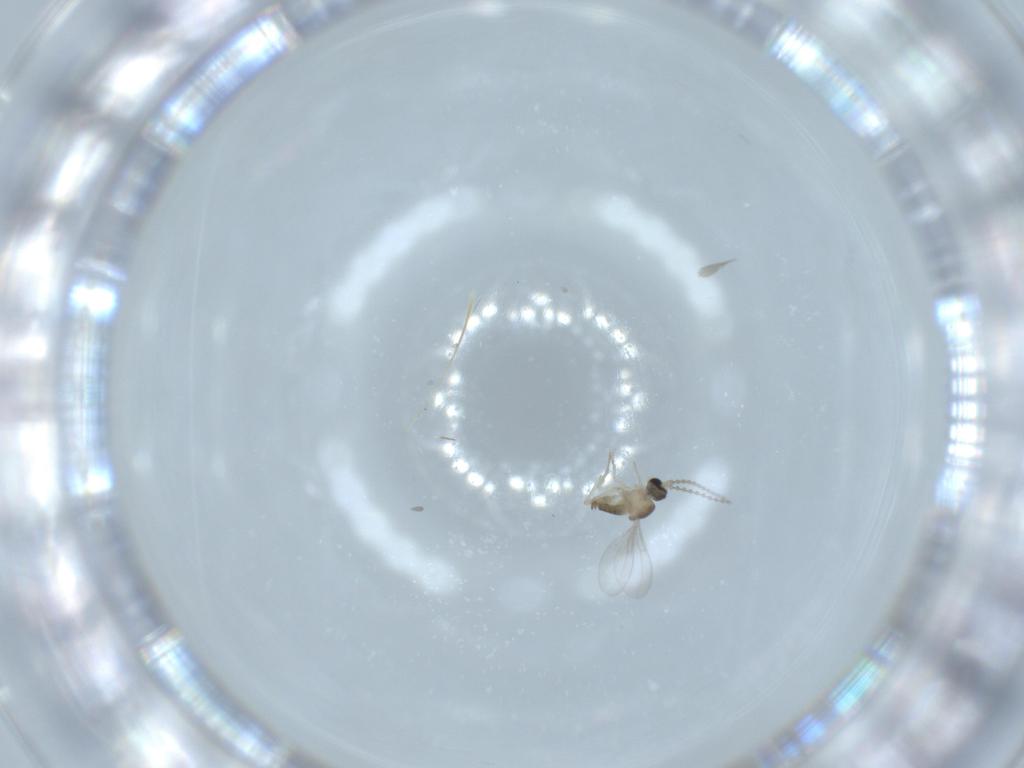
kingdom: Animalia
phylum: Arthropoda
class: Insecta
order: Diptera
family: Cecidomyiidae
